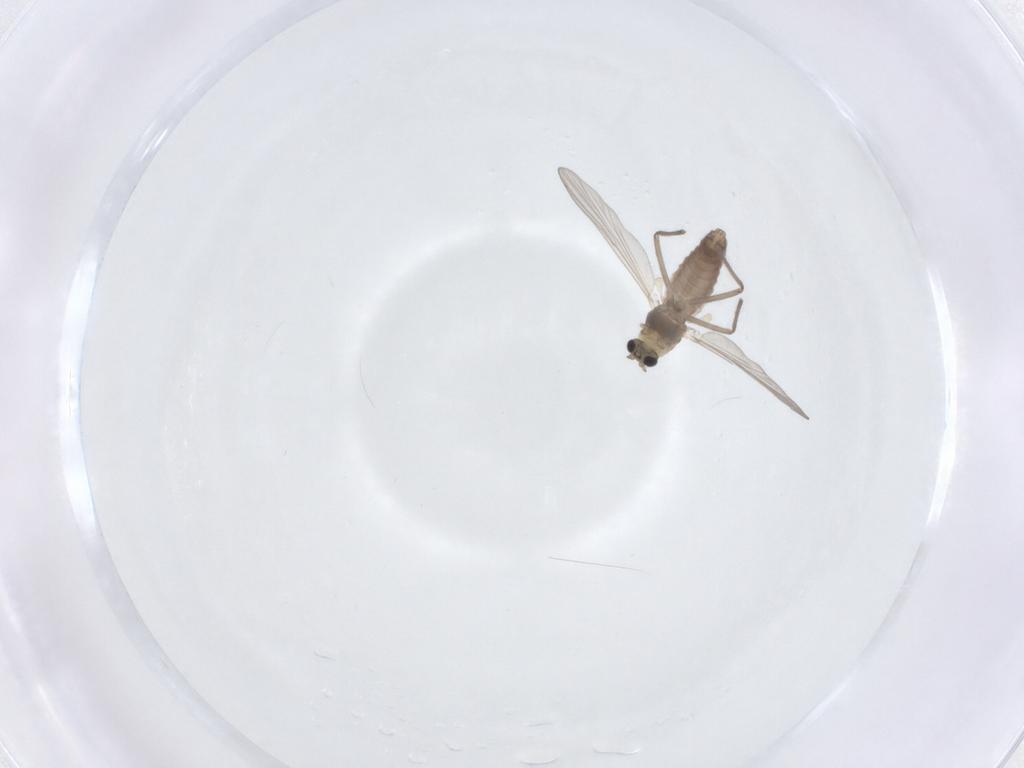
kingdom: Animalia
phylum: Arthropoda
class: Insecta
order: Diptera
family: Chironomidae
